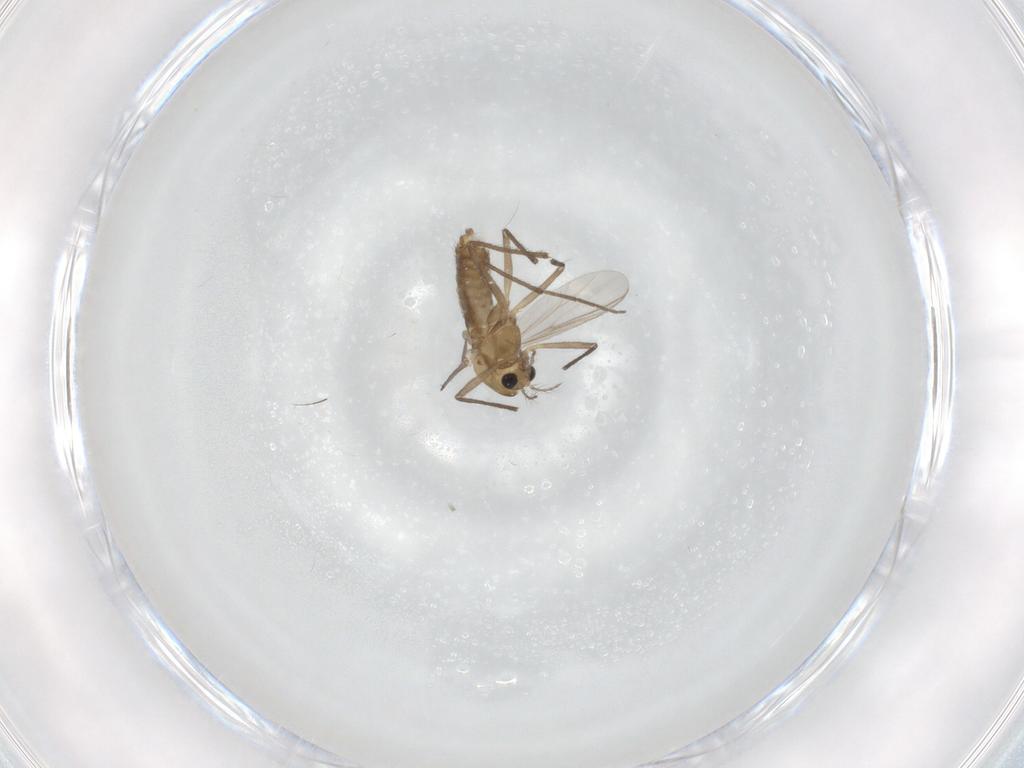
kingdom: Animalia
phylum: Arthropoda
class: Insecta
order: Diptera
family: Chironomidae
